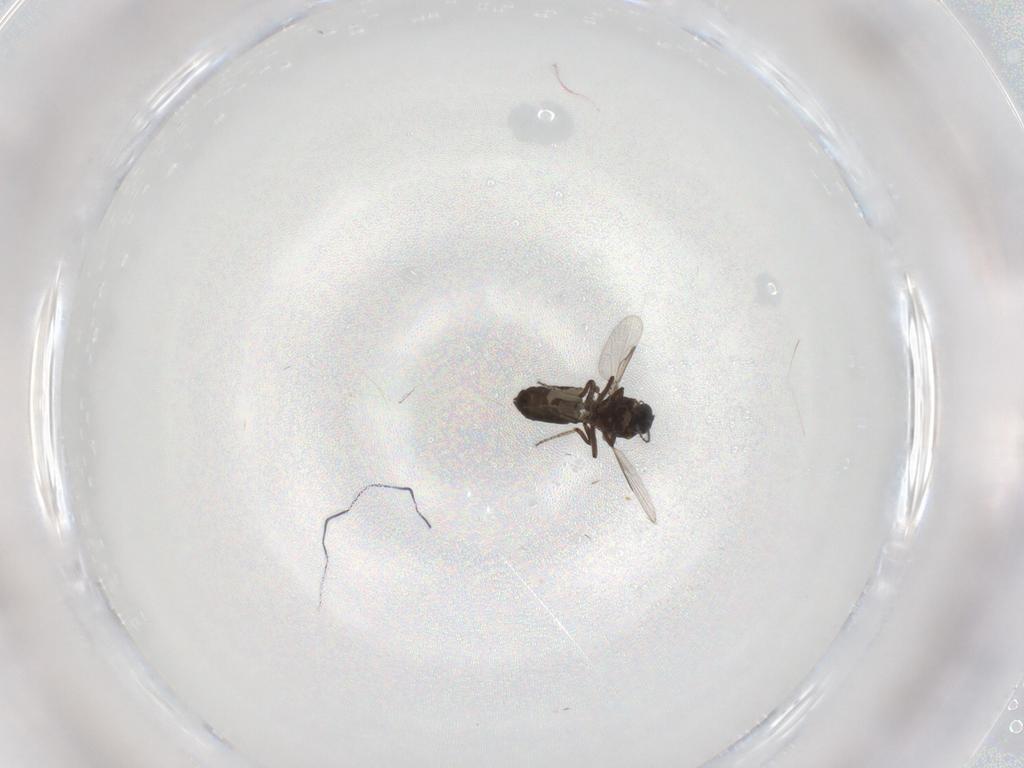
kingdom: Animalia
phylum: Arthropoda
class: Insecta
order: Diptera
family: Ceratopogonidae
